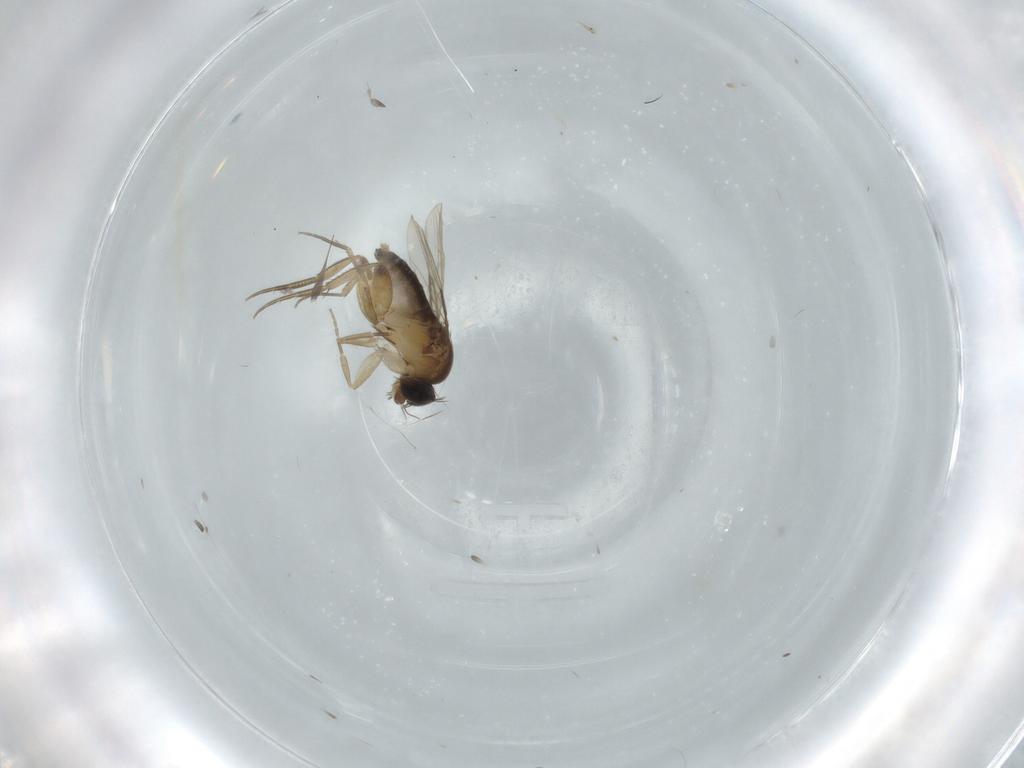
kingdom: Animalia
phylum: Arthropoda
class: Insecta
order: Diptera
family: Phoridae
